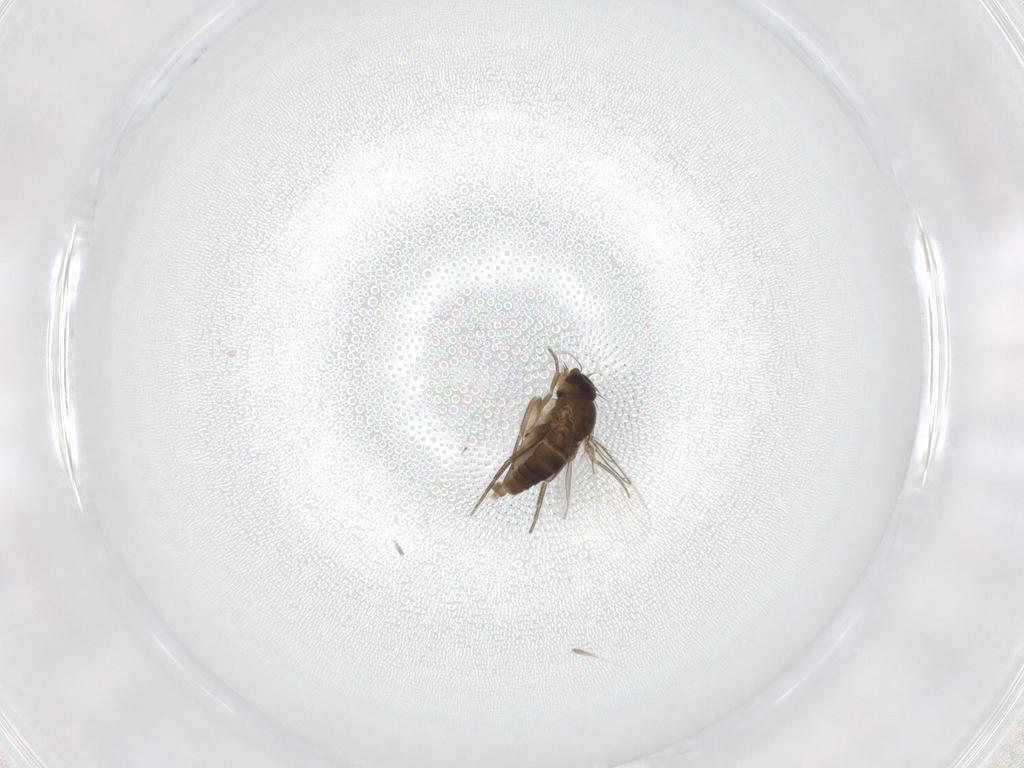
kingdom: Animalia
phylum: Arthropoda
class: Insecta
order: Diptera
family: Phoridae
